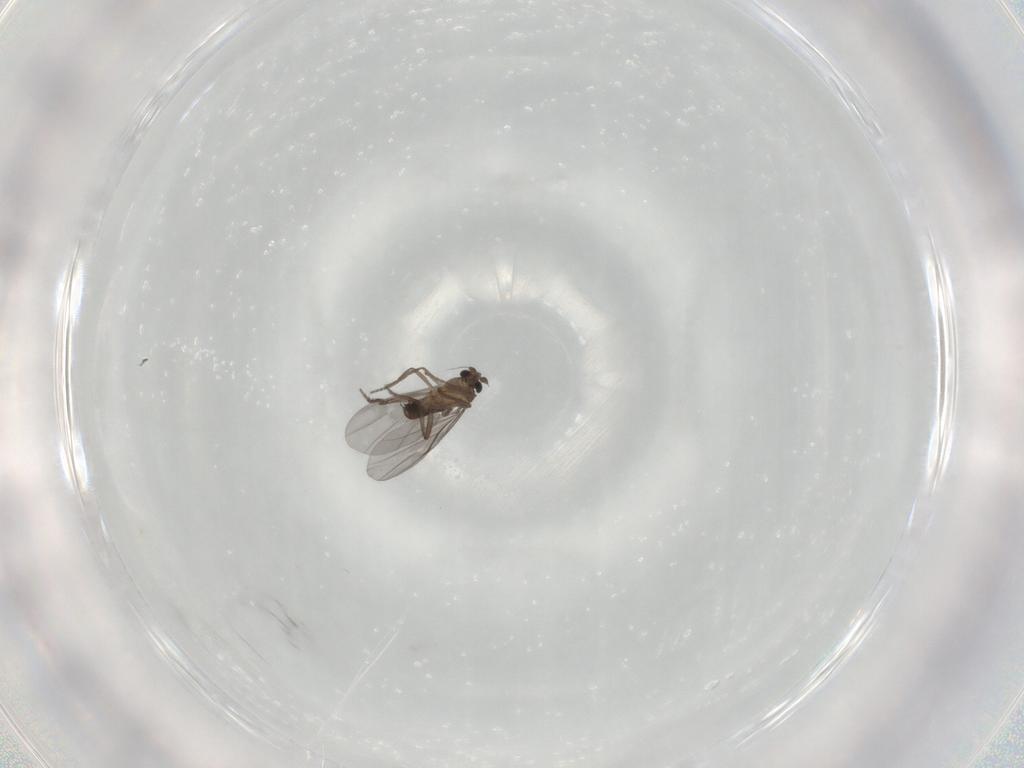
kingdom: Animalia
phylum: Arthropoda
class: Insecta
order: Diptera
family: Phoridae
